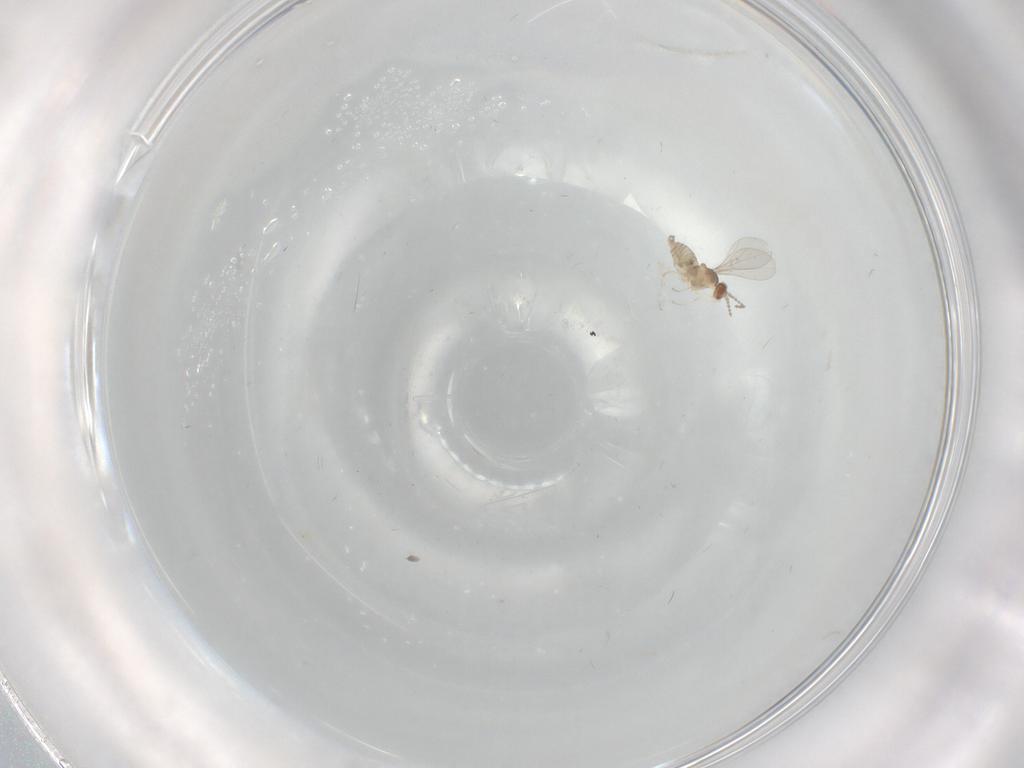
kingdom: Animalia
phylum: Arthropoda
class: Insecta
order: Diptera
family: Cecidomyiidae
